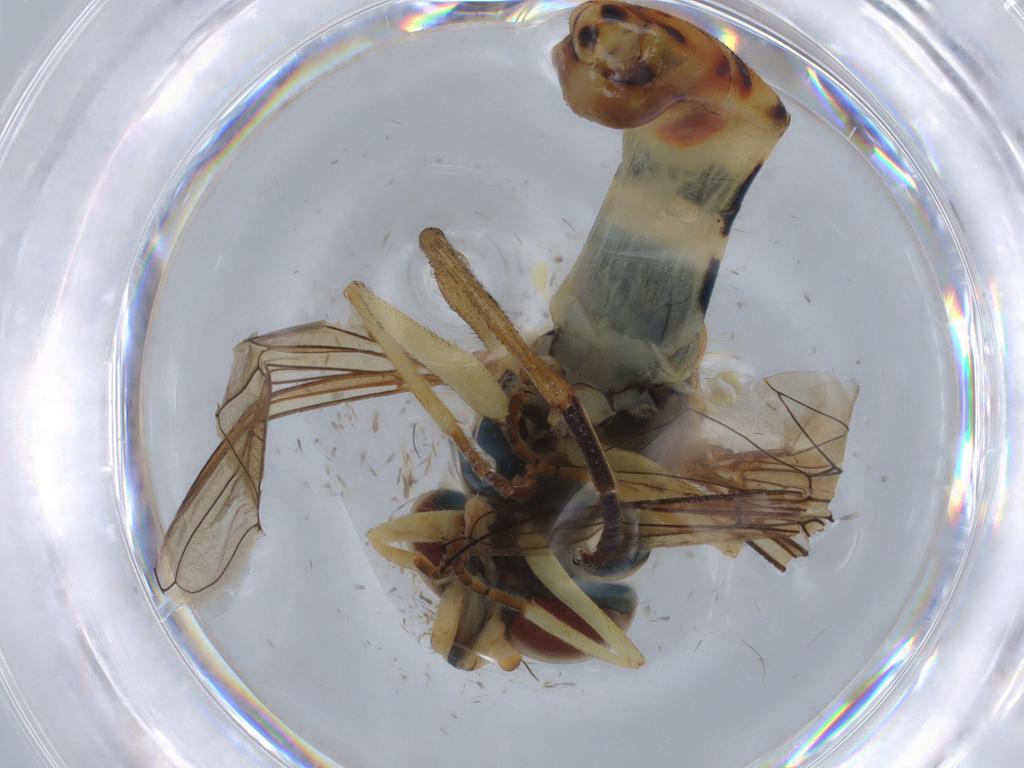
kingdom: Animalia
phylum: Arthropoda
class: Insecta
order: Diptera
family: Cecidomyiidae
